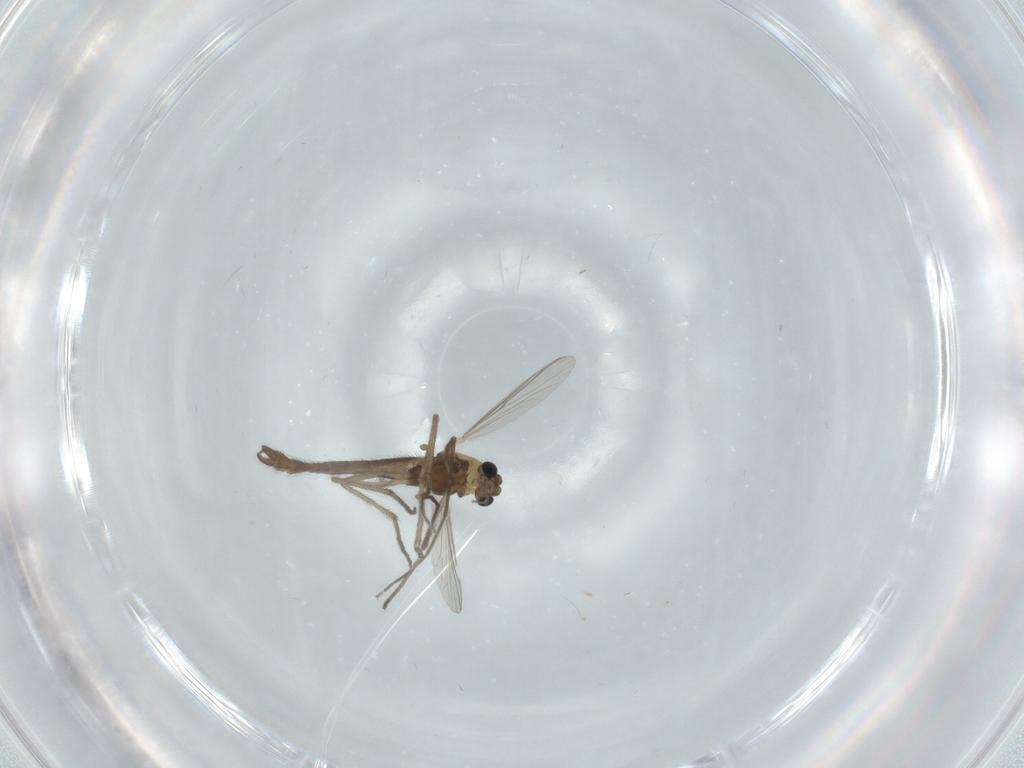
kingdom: Animalia
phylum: Arthropoda
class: Insecta
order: Diptera
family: Chironomidae
